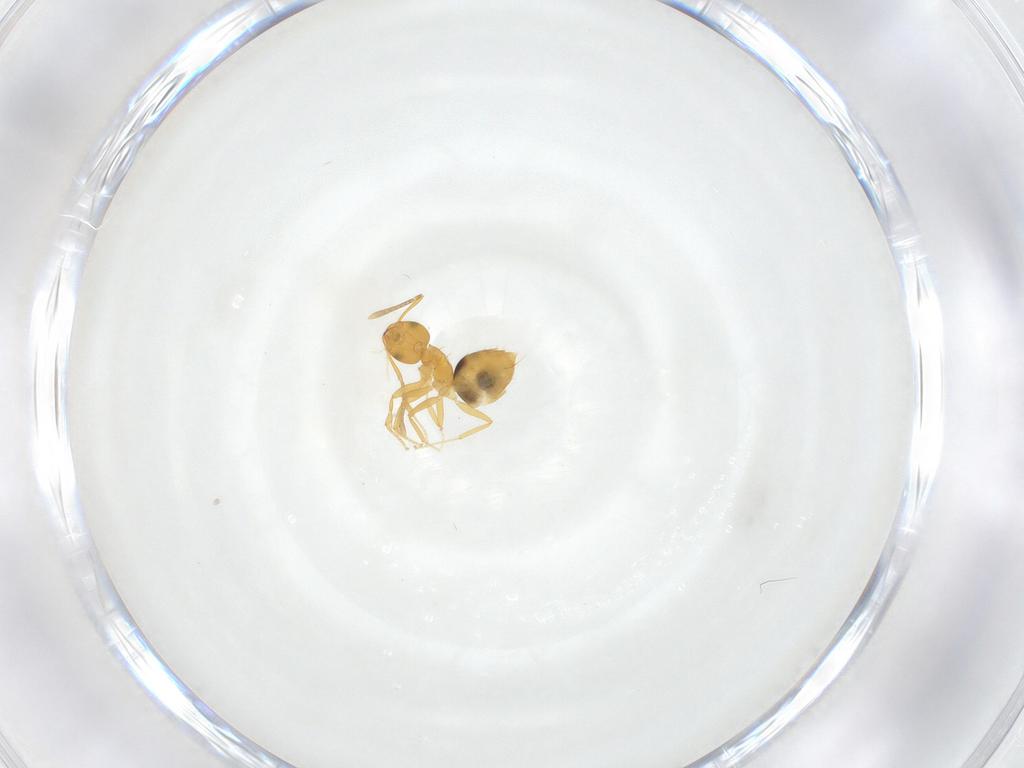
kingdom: Animalia
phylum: Arthropoda
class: Insecta
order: Hymenoptera
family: Formicidae
